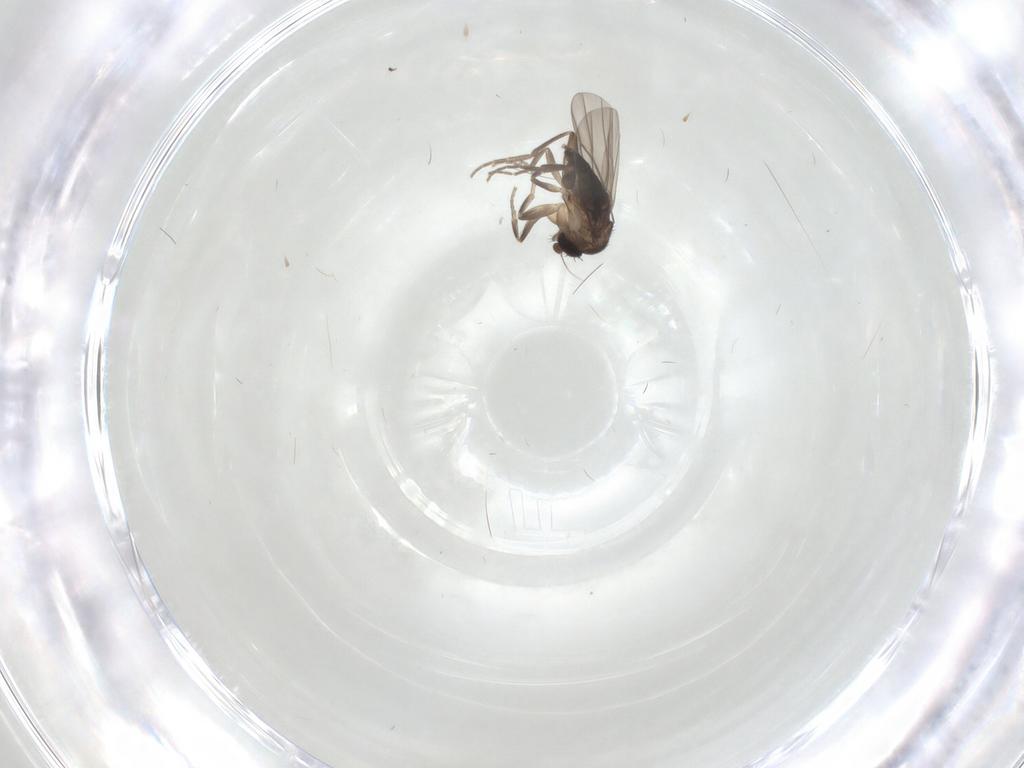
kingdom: Animalia
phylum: Arthropoda
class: Insecta
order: Diptera
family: Phoridae
